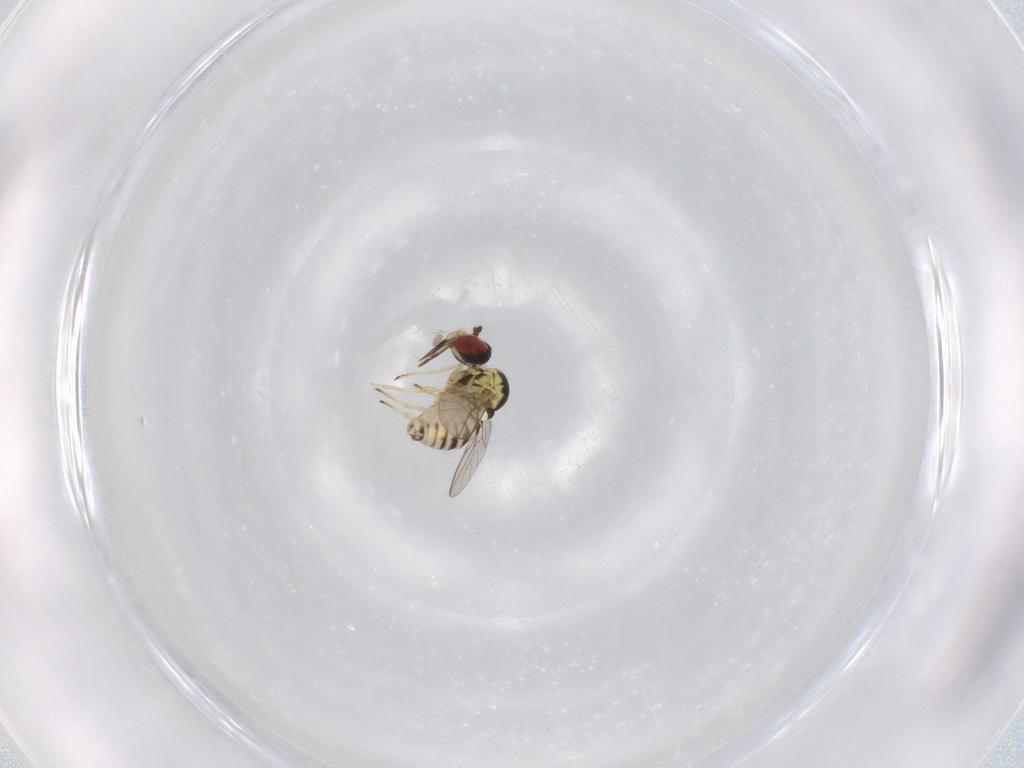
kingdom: Animalia
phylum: Arthropoda
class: Insecta
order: Diptera
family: Bombyliidae
